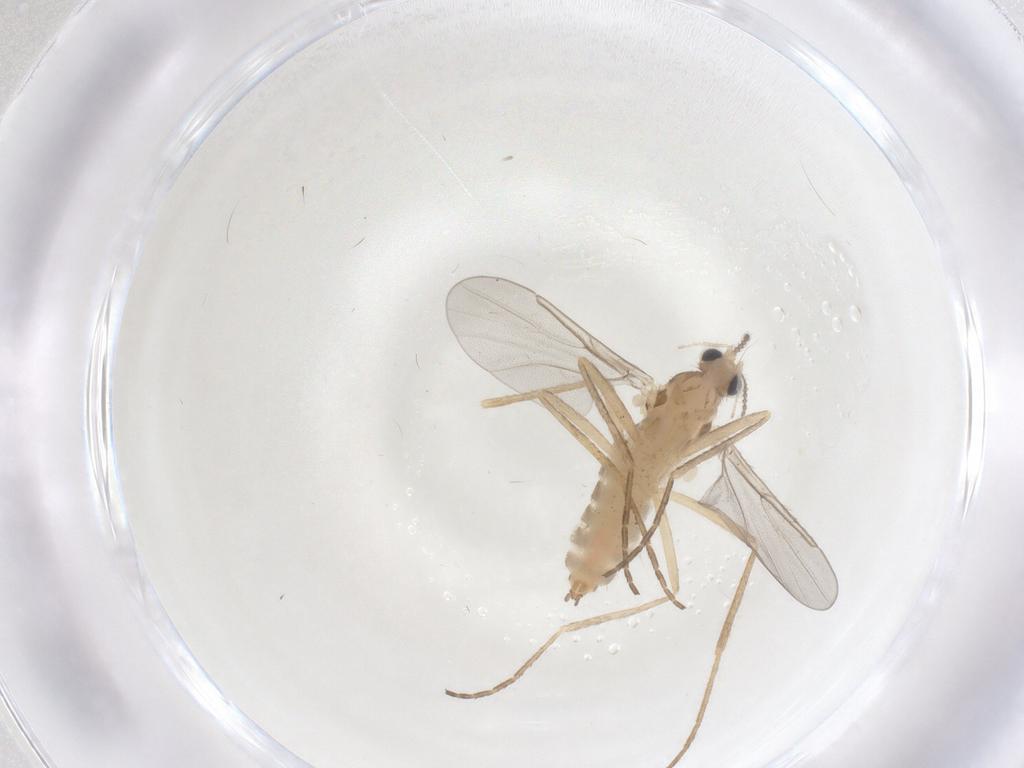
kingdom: Animalia
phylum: Arthropoda
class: Insecta
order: Diptera
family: Cecidomyiidae
